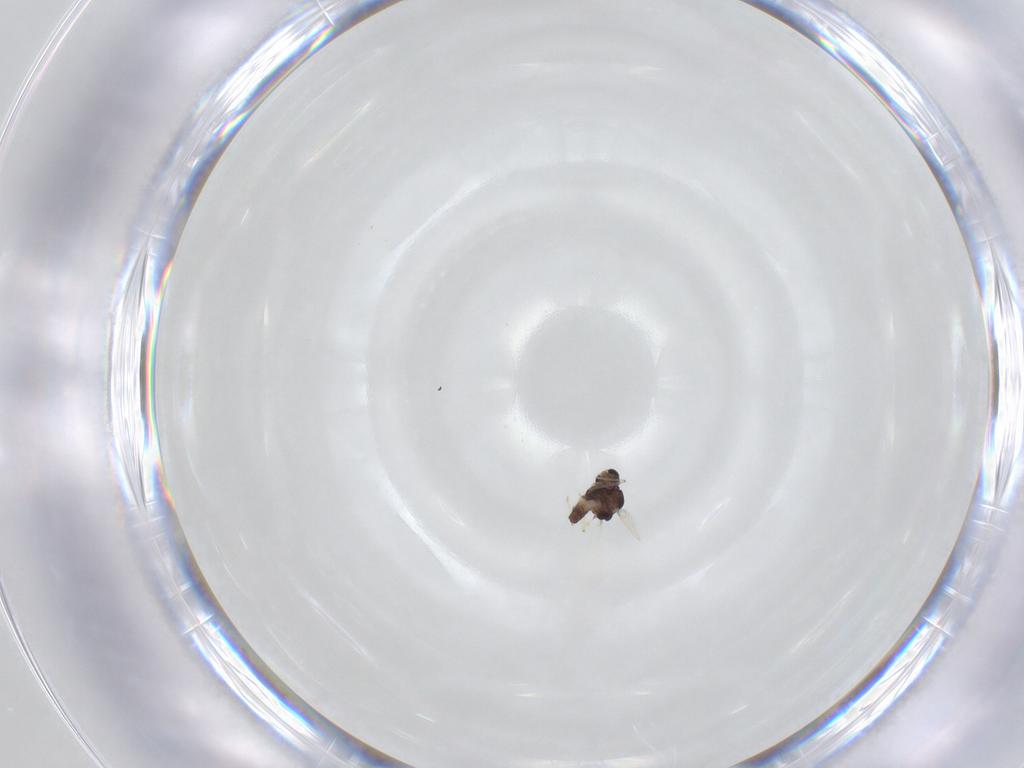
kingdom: Animalia
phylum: Arthropoda
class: Insecta
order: Diptera
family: Chironomidae
